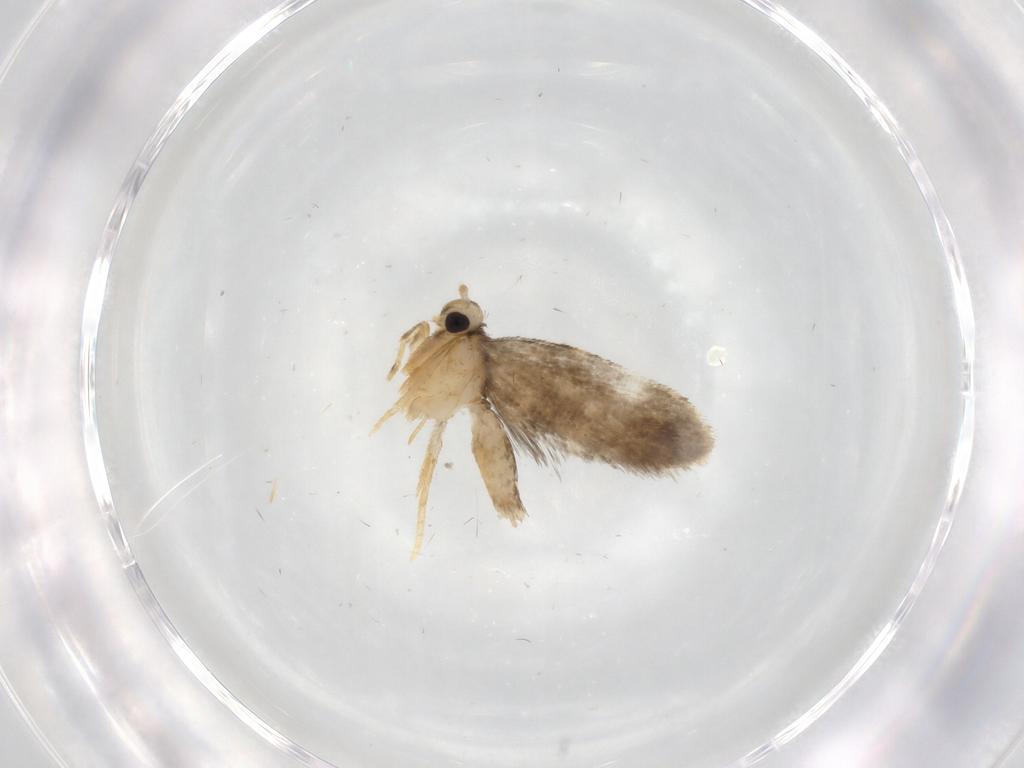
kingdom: Animalia
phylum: Arthropoda
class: Insecta
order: Lepidoptera
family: Psychidae
